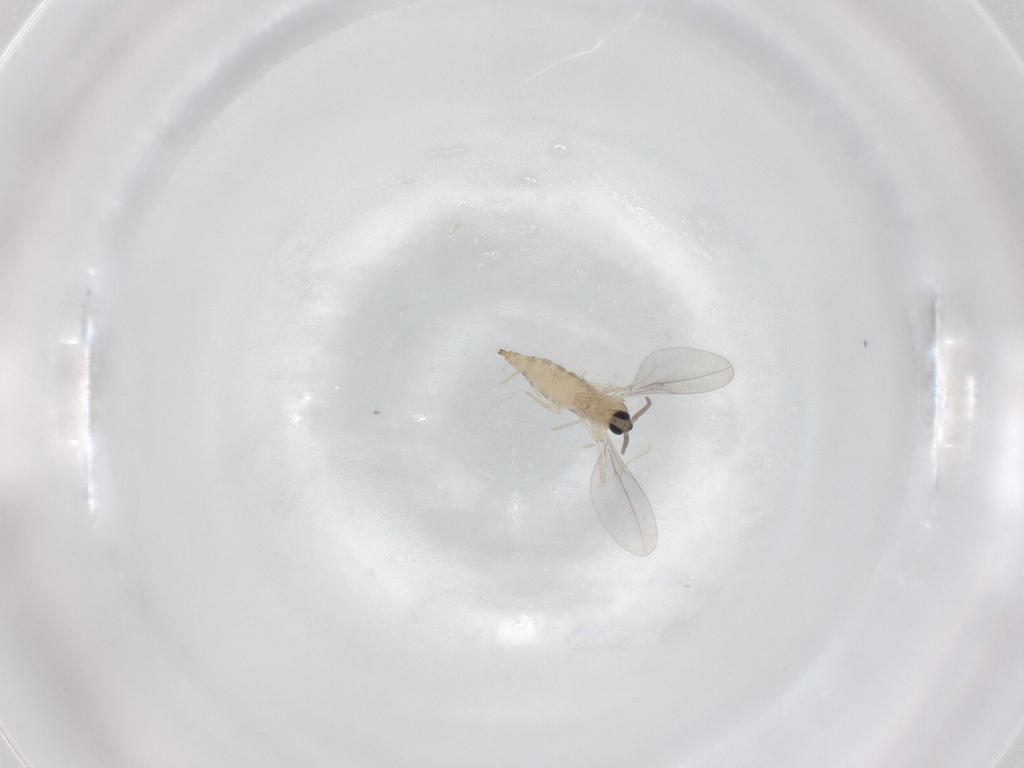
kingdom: Animalia
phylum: Arthropoda
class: Insecta
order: Diptera
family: Cecidomyiidae
